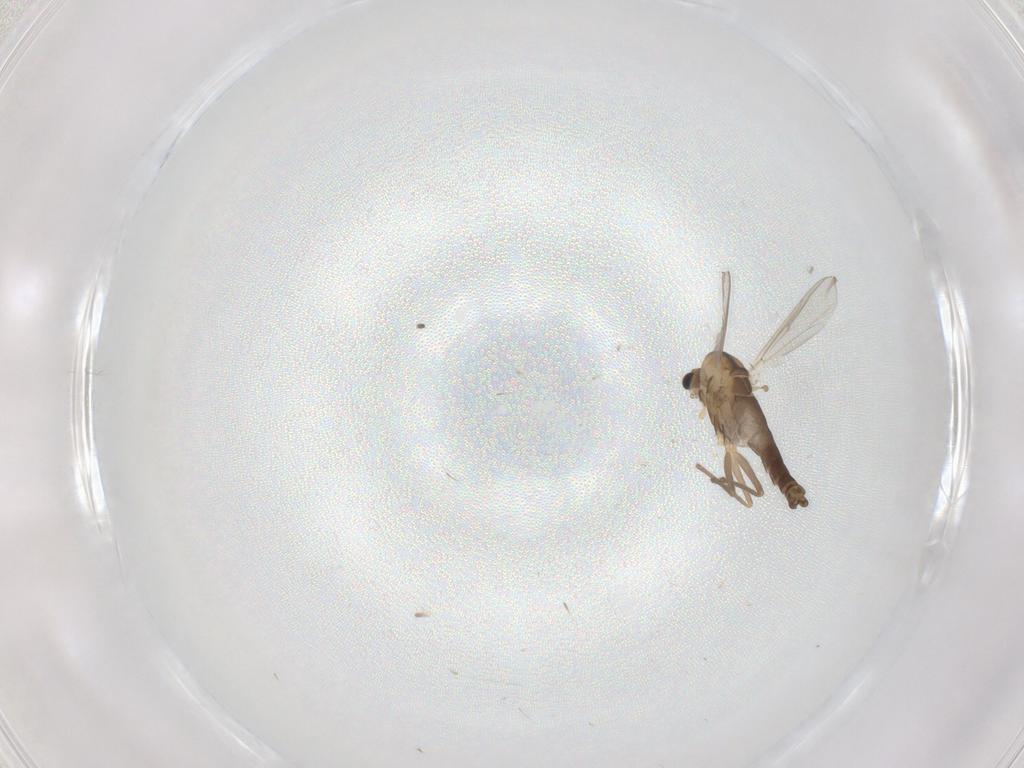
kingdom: Animalia
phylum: Arthropoda
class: Insecta
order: Diptera
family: Chironomidae
